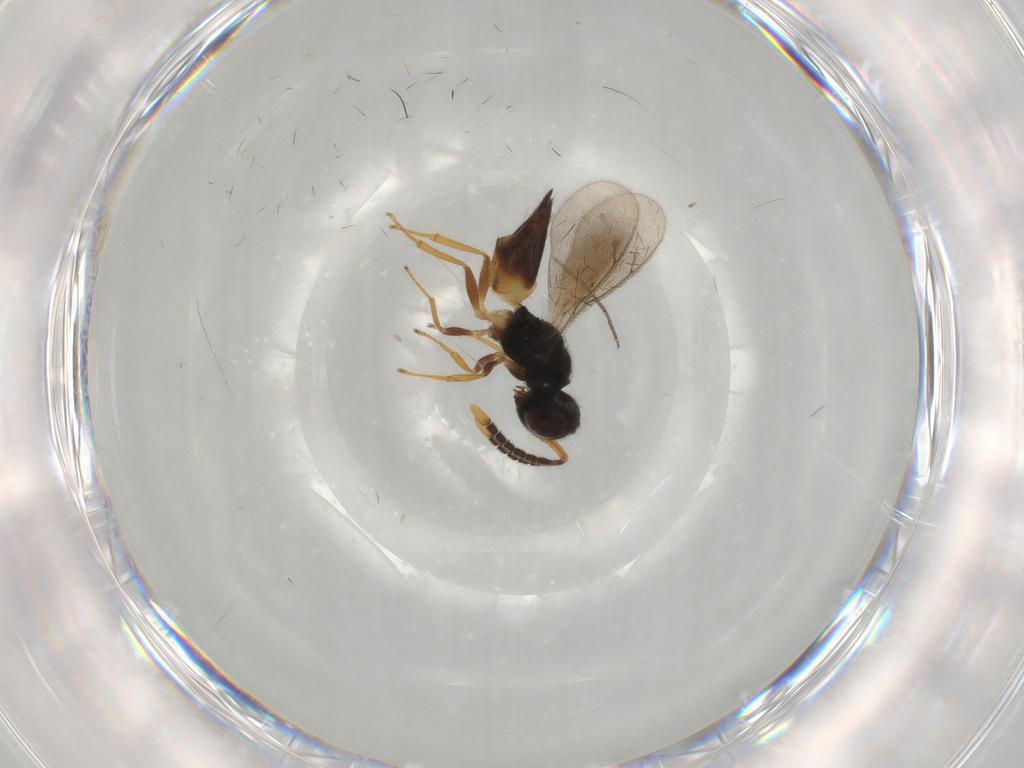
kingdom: Animalia
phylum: Arthropoda
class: Insecta
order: Hymenoptera
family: Pteromalidae
